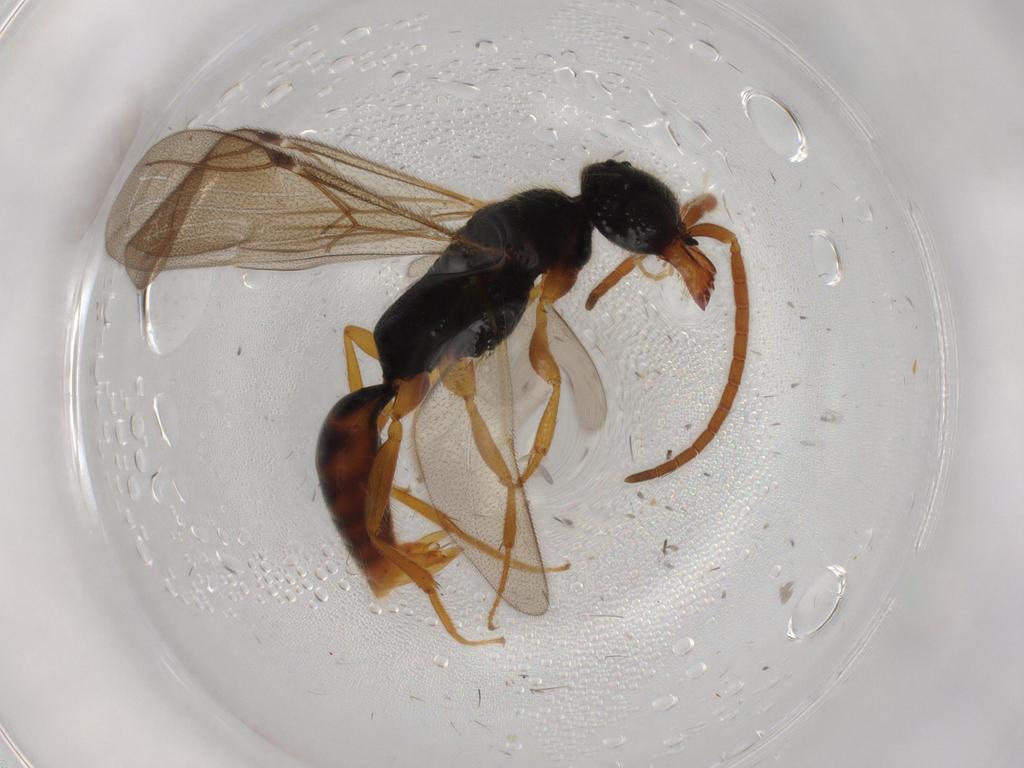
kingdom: Animalia
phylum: Arthropoda
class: Insecta
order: Hymenoptera
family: Bethylidae
